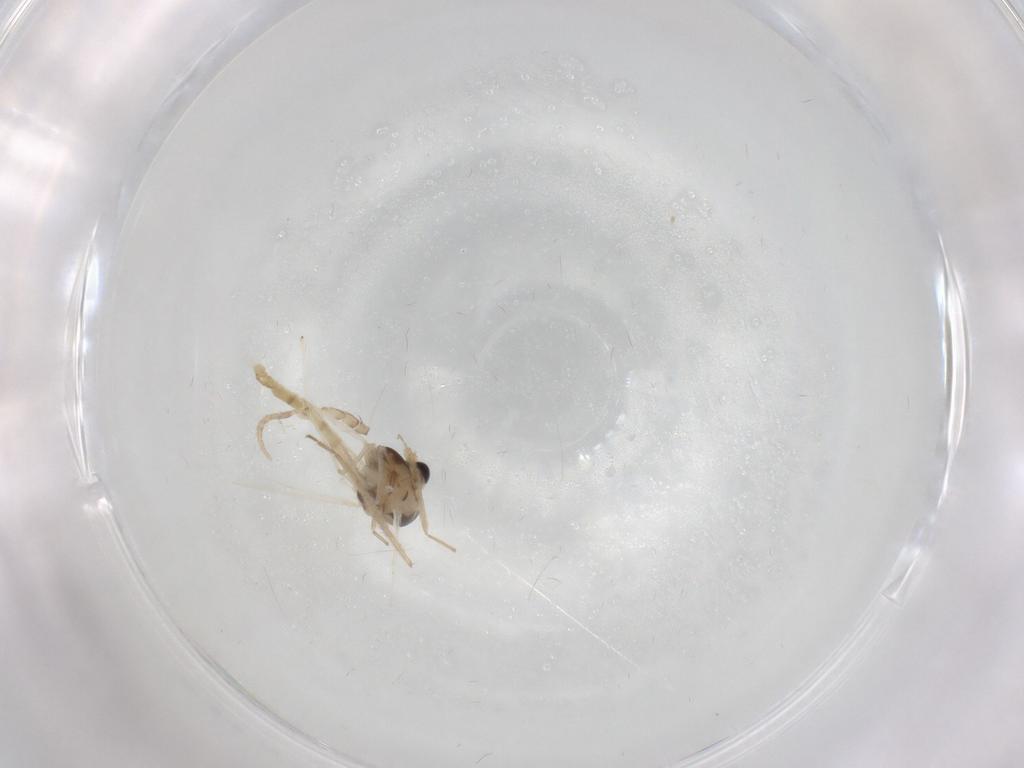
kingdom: Animalia
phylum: Arthropoda
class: Insecta
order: Diptera
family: Chironomidae
